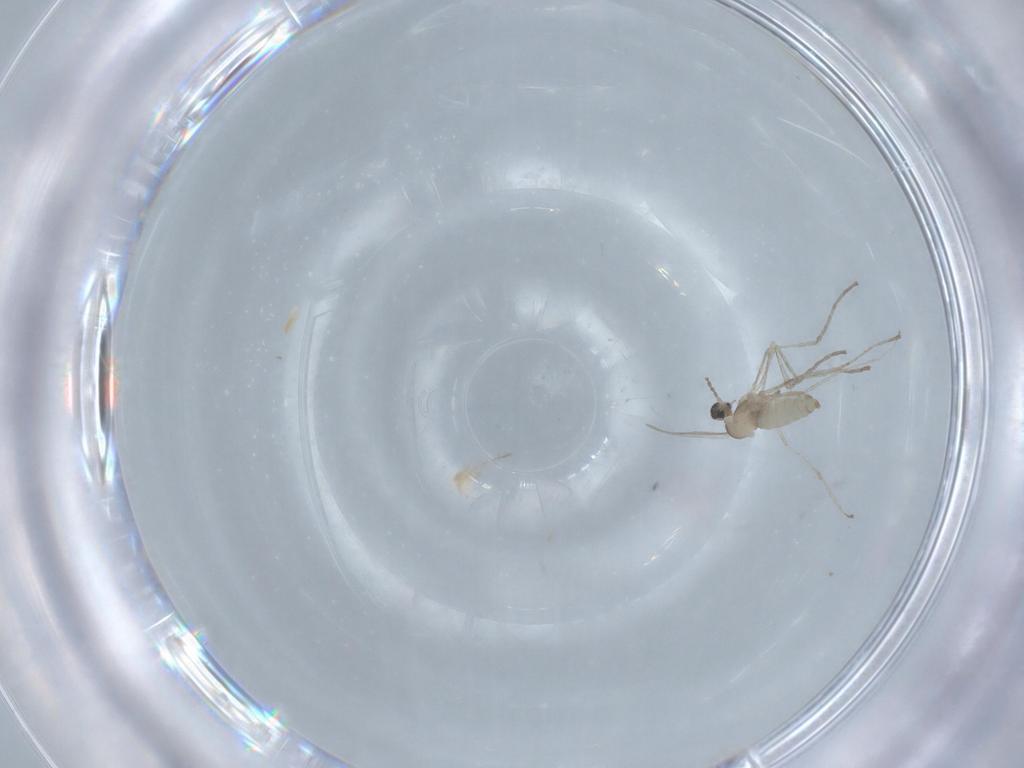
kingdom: Animalia
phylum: Arthropoda
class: Insecta
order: Diptera
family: Cecidomyiidae
